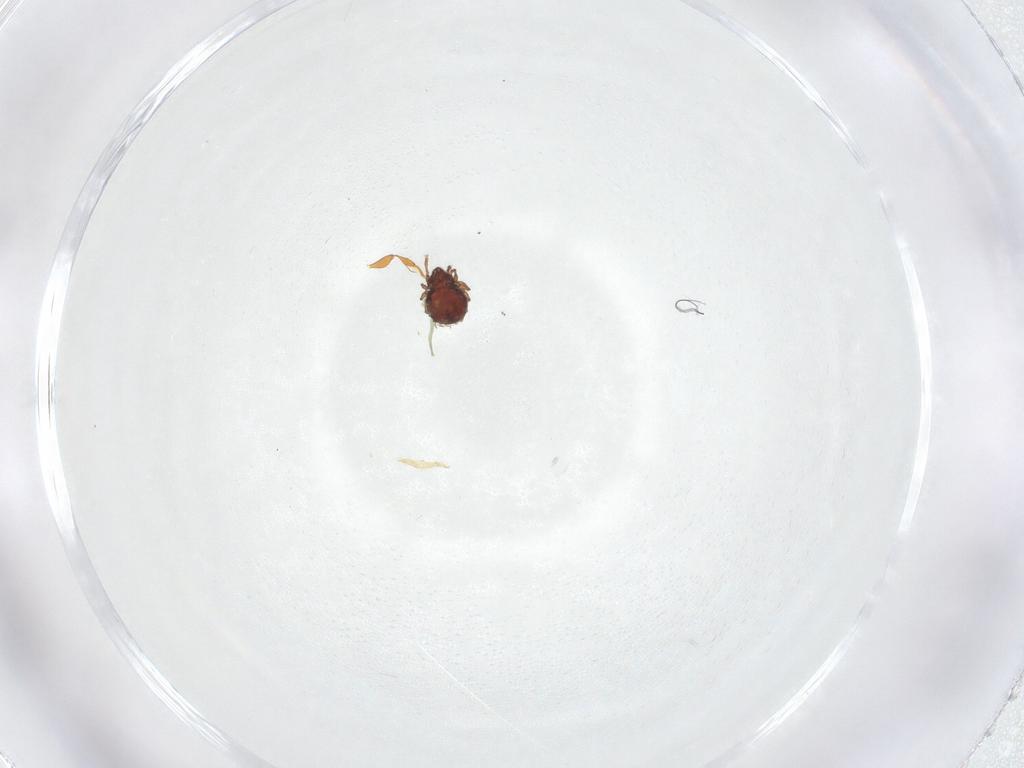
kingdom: Animalia
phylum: Arthropoda
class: Arachnida
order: Sarcoptiformes
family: Scheloribatidae
